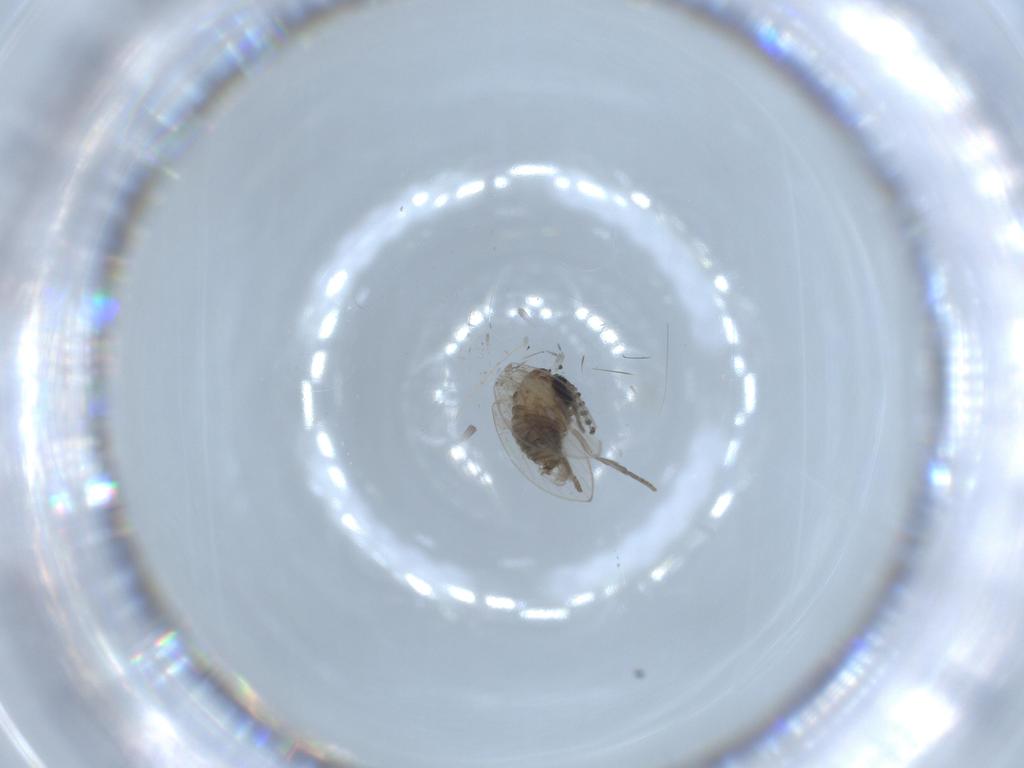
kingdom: Animalia
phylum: Arthropoda
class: Insecta
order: Diptera
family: Psychodidae
